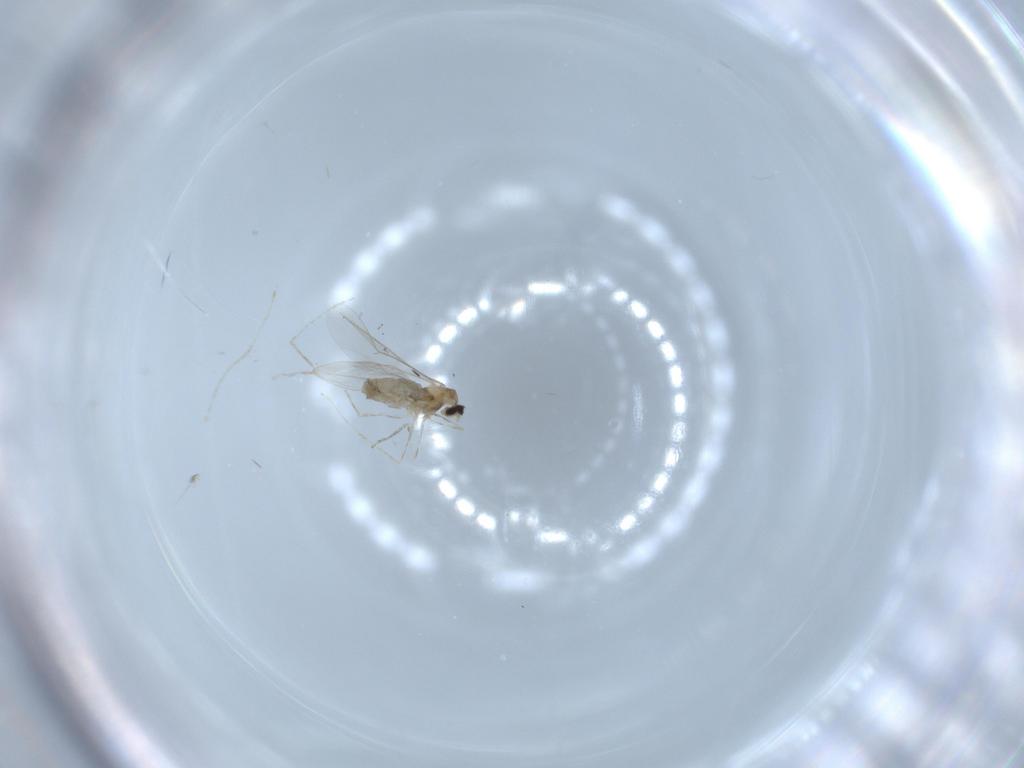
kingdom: Animalia
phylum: Arthropoda
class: Insecta
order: Diptera
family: Cecidomyiidae
